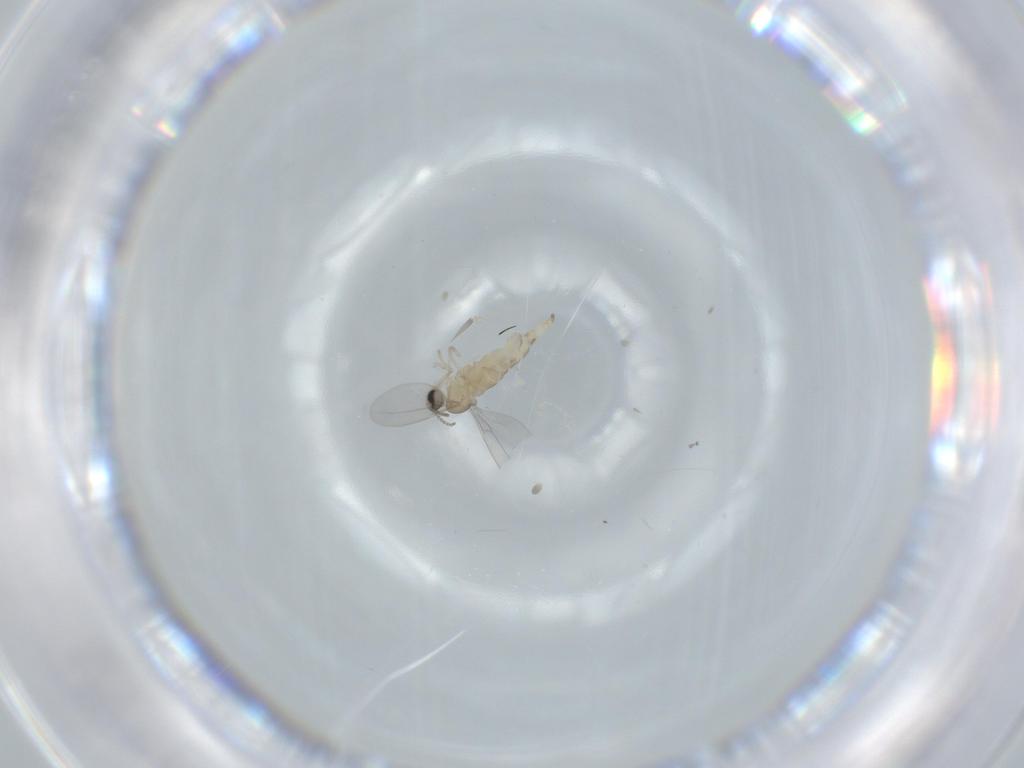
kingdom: Animalia
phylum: Arthropoda
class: Insecta
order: Diptera
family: Cecidomyiidae
